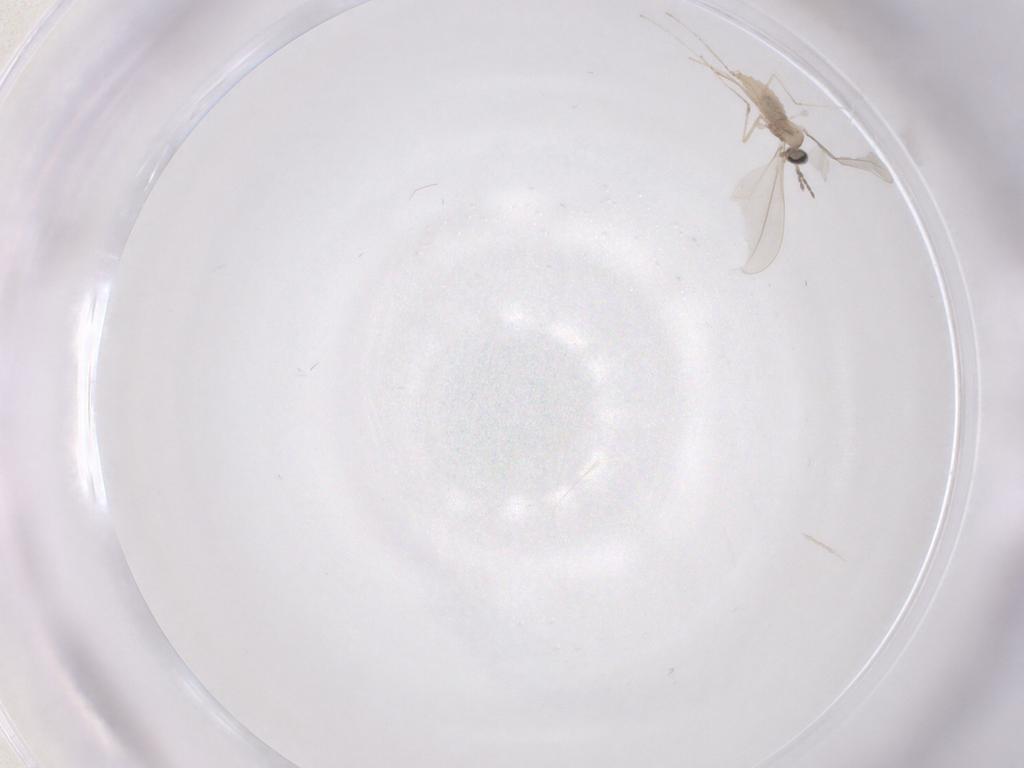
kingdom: Animalia
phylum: Arthropoda
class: Insecta
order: Diptera
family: Cecidomyiidae
